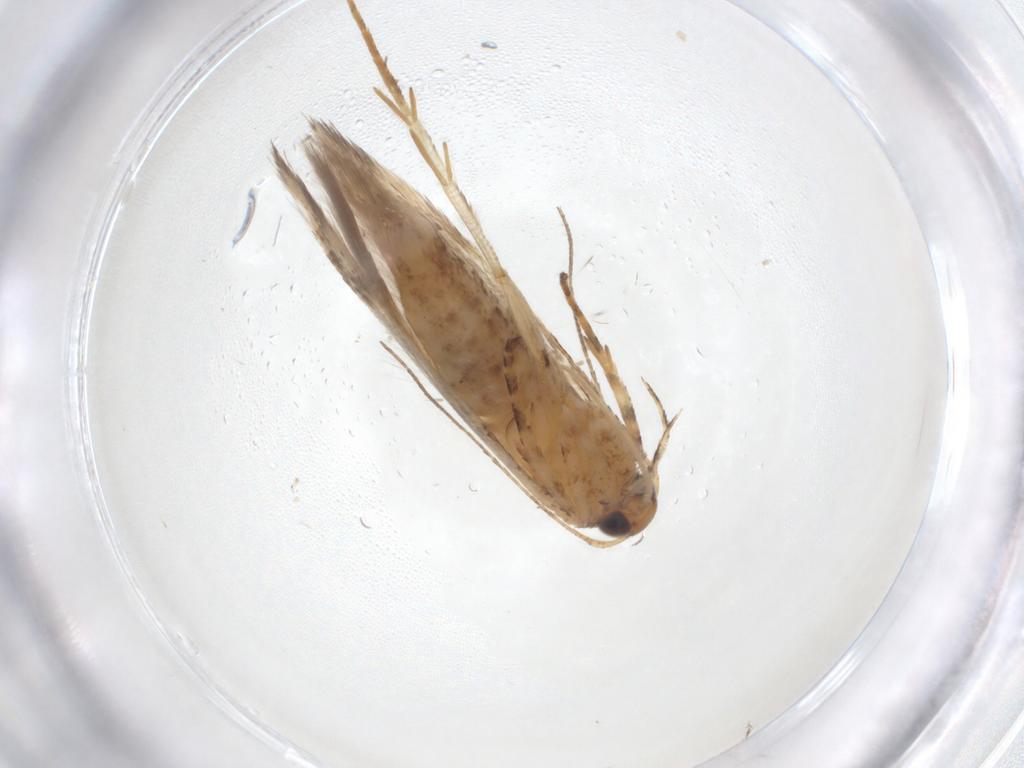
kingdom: Animalia
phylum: Arthropoda
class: Insecta
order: Lepidoptera
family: Gelechiidae
